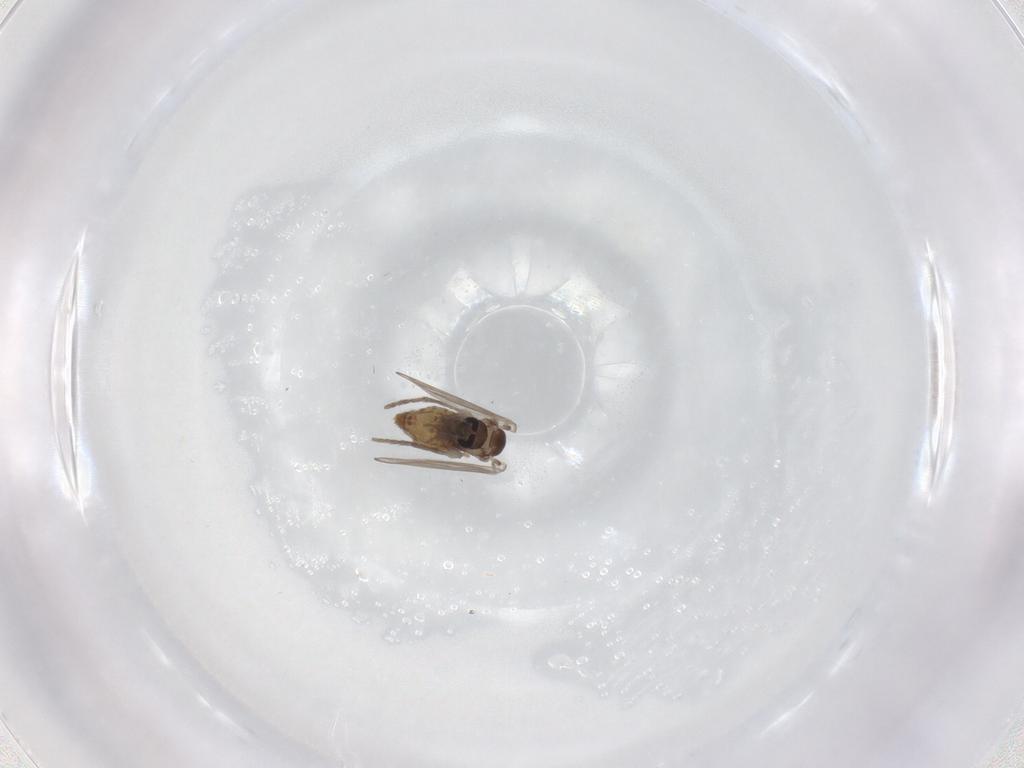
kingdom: Animalia
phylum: Arthropoda
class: Insecta
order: Diptera
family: Psychodidae
